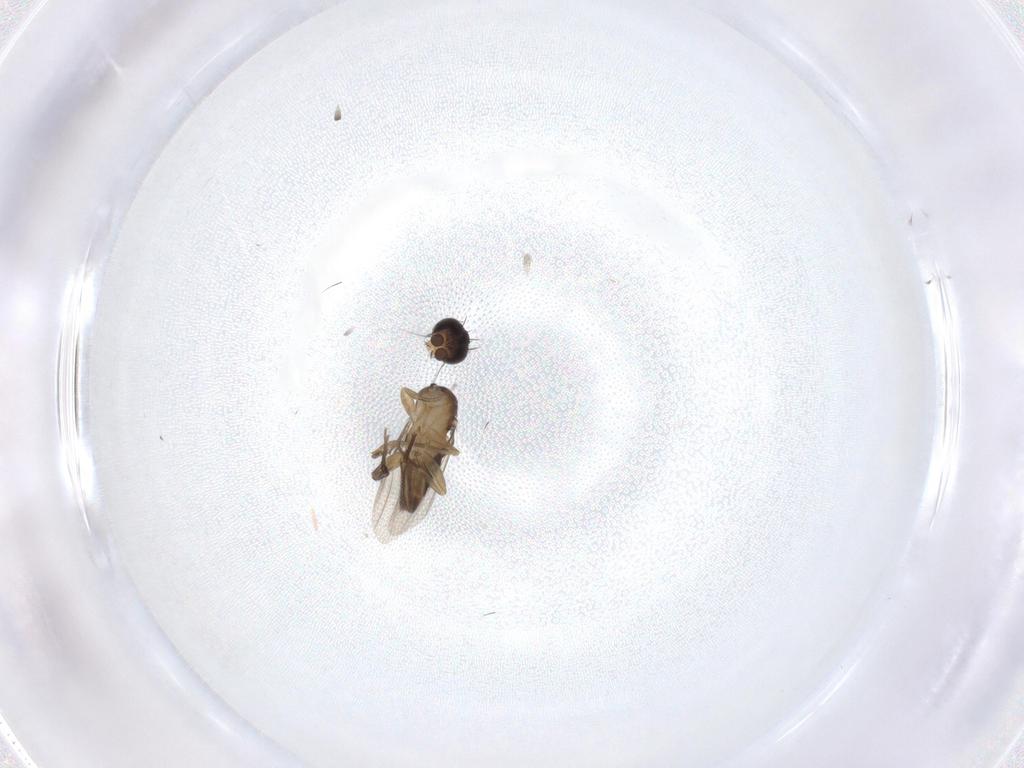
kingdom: Animalia
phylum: Arthropoda
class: Insecta
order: Diptera
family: Phoridae
